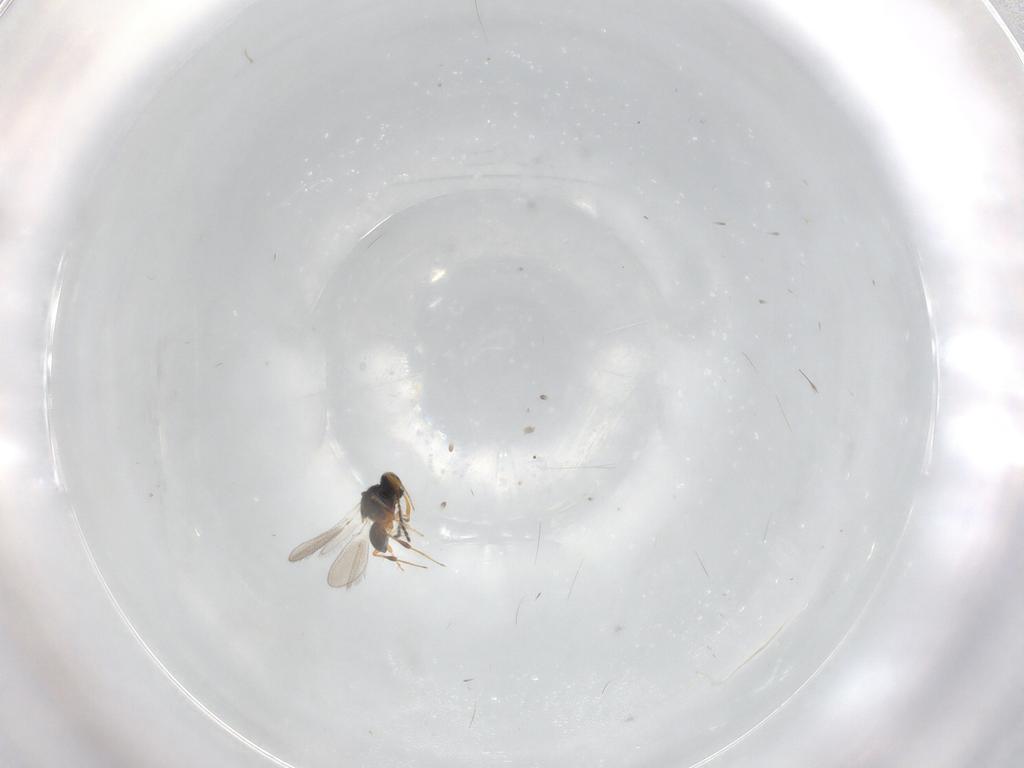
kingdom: Animalia
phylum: Arthropoda
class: Insecta
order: Hymenoptera
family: Platygastridae
